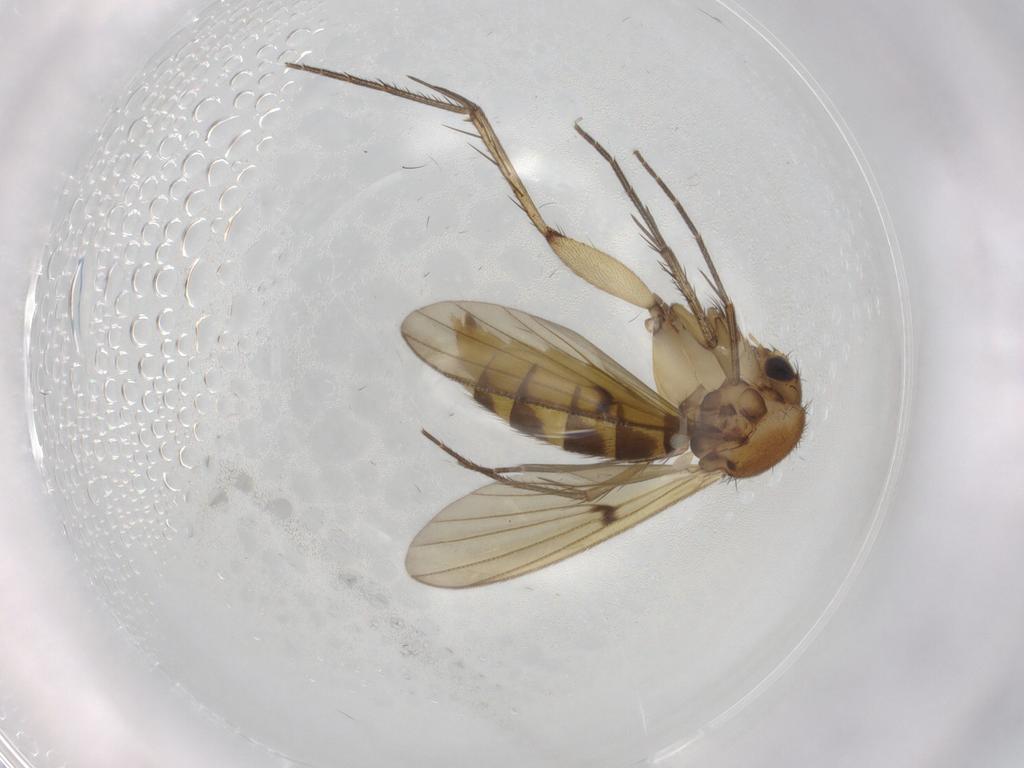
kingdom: Animalia
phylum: Arthropoda
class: Insecta
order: Diptera
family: Mycetophilidae
